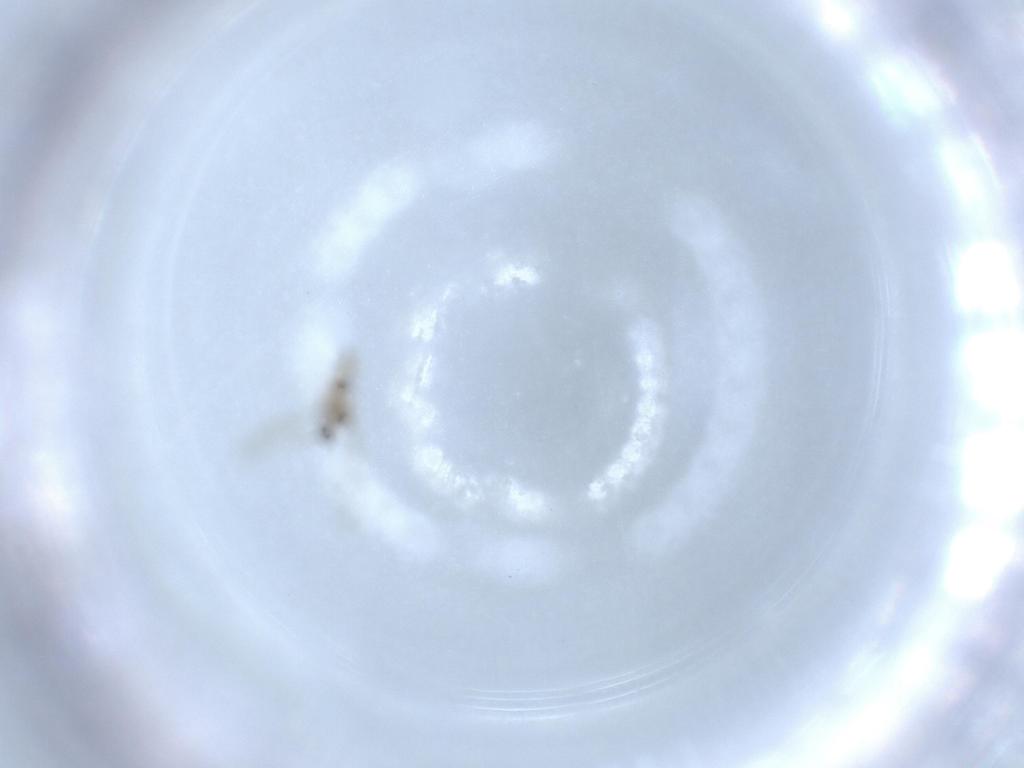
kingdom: Animalia
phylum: Arthropoda
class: Insecta
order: Diptera
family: Cecidomyiidae
